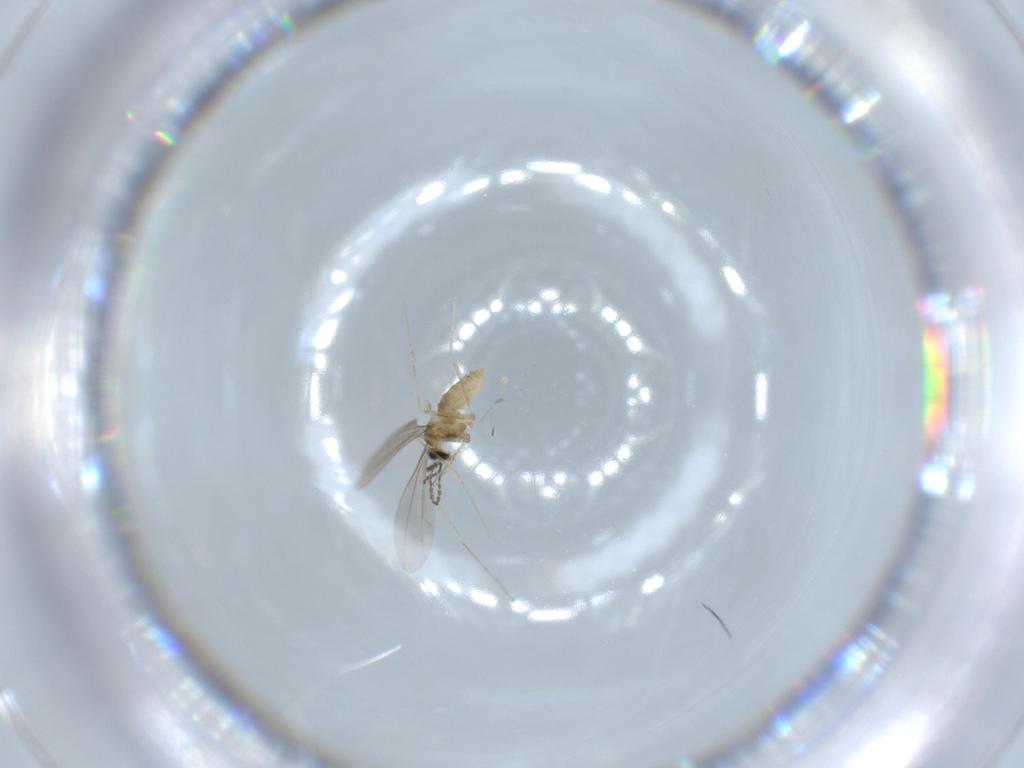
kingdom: Animalia
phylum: Arthropoda
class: Insecta
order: Diptera
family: Cecidomyiidae
